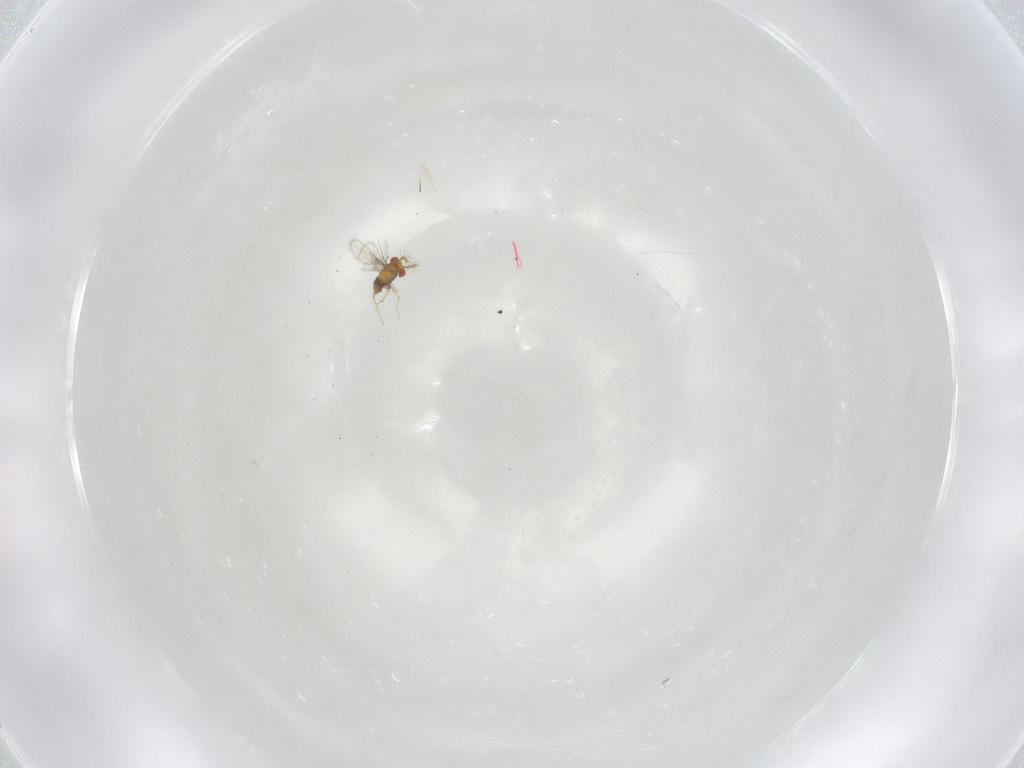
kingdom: Animalia
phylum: Arthropoda
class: Insecta
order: Hymenoptera
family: Trichogrammatidae
